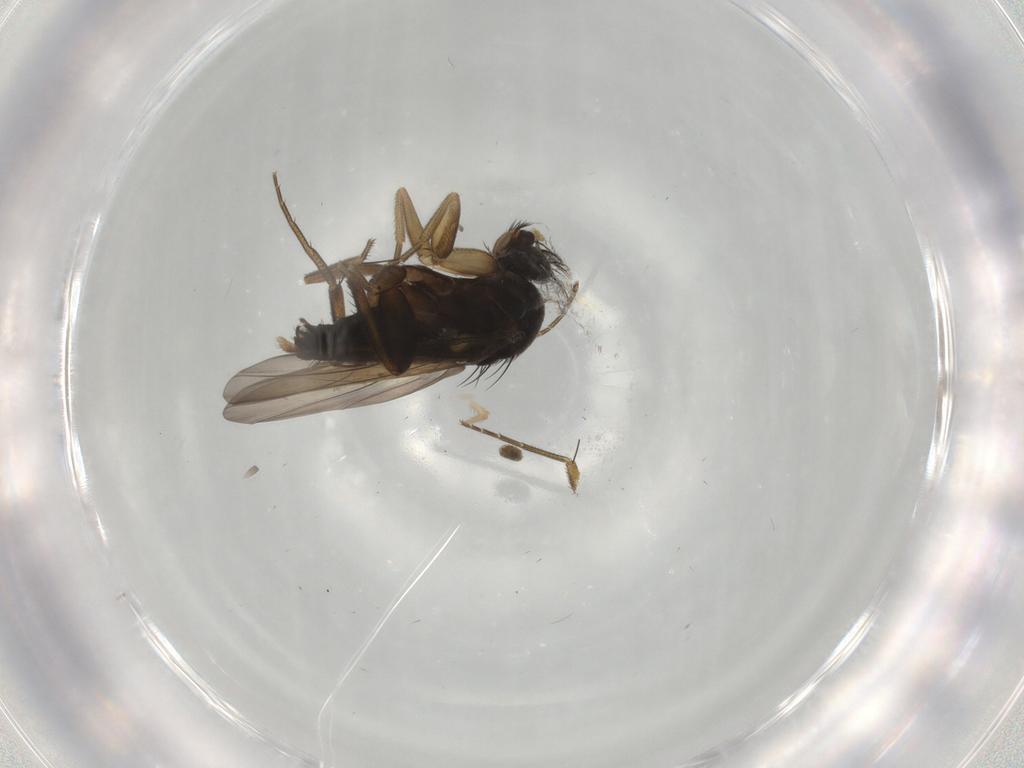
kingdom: Animalia
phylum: Arthropoda
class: Insecta
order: Diptera
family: Phoridae
